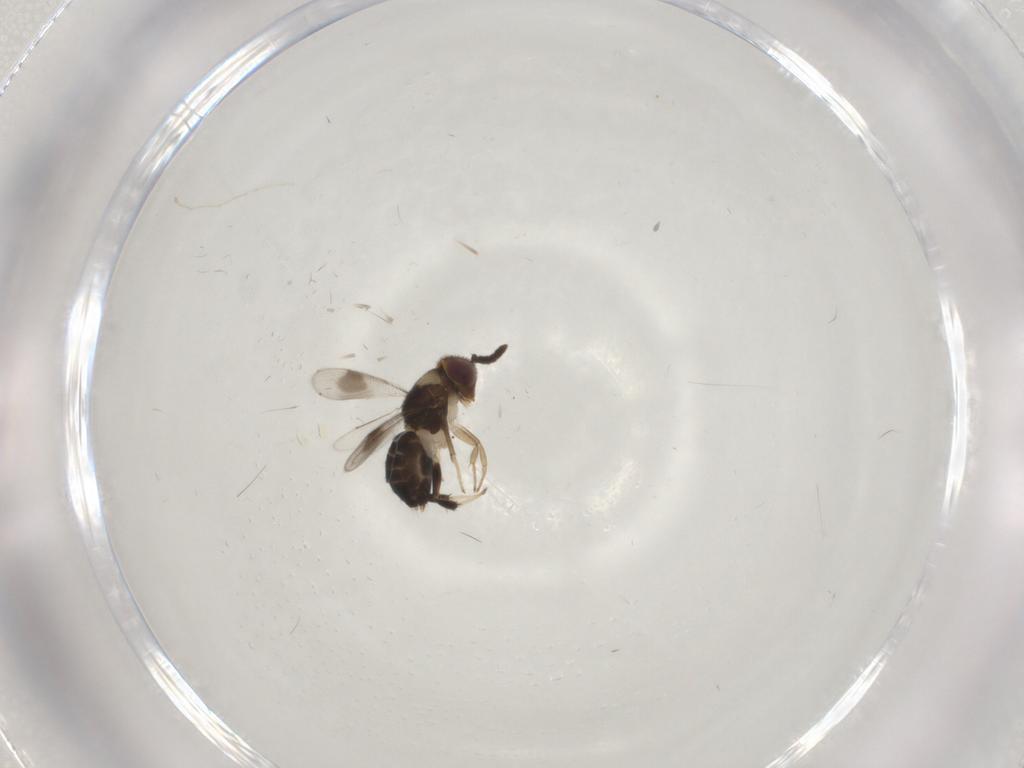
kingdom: Animalia
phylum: Arthropoda
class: Insecta
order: Hymenoptera
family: Aphelinidae
